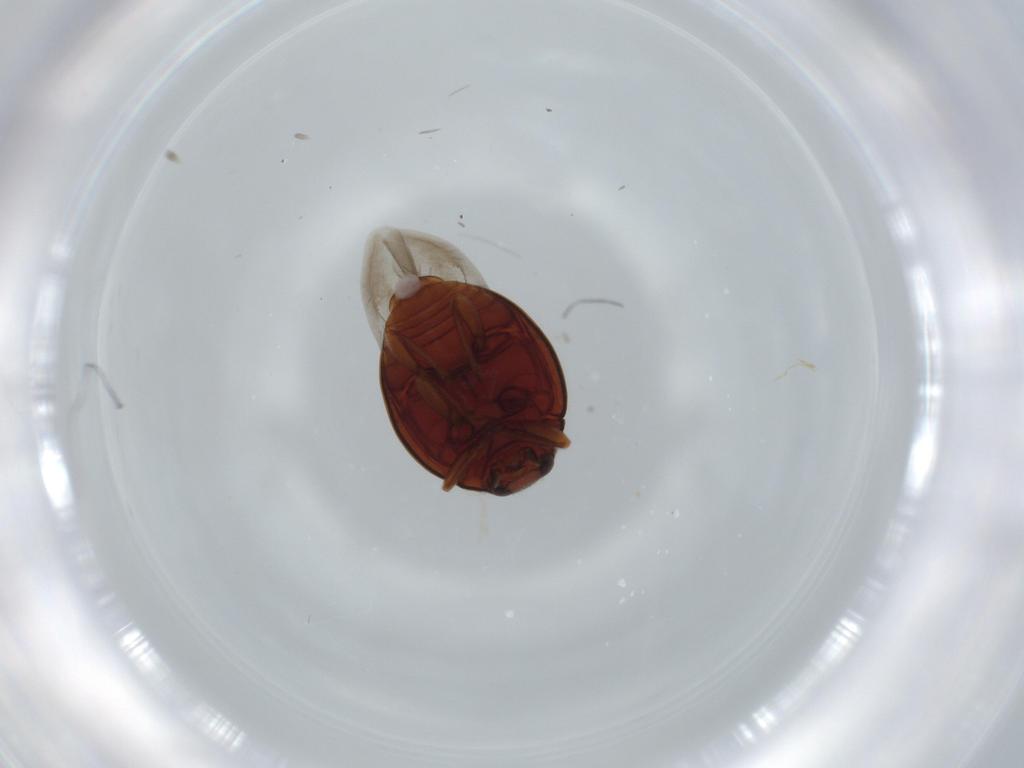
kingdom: Animalia
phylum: Arthropoda
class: Insecta
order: Coleoptera
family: Coccinellidae
